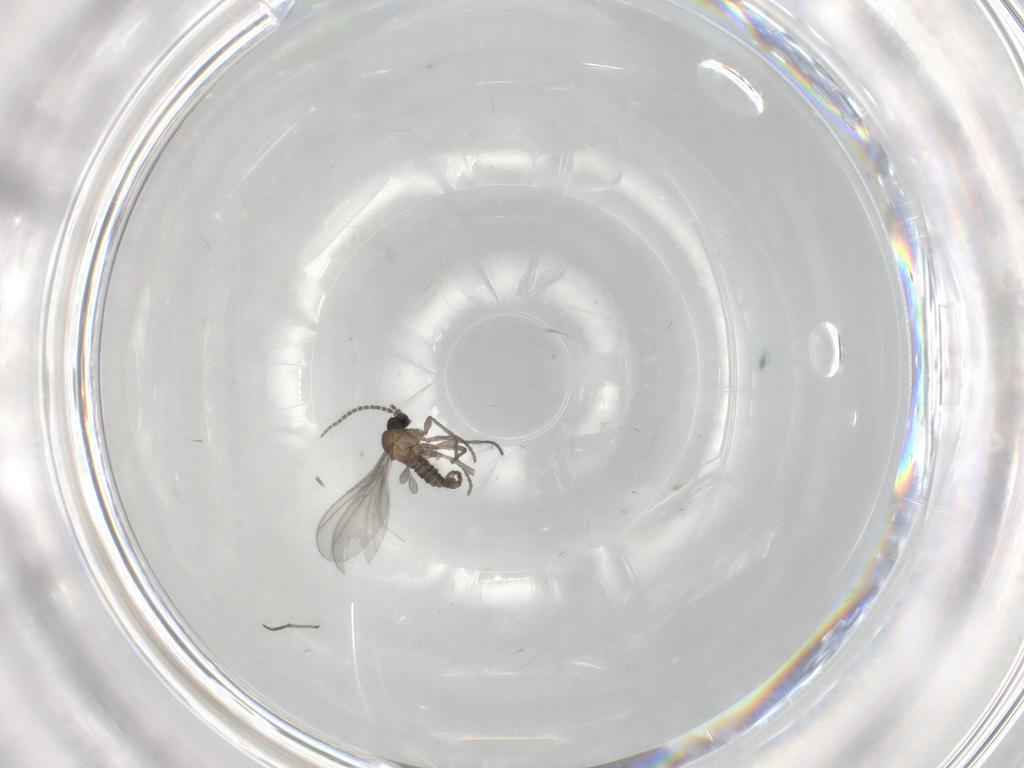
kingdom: Animalia
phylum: Arthropoda
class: Insecta
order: Diptera
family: Sciaridae
